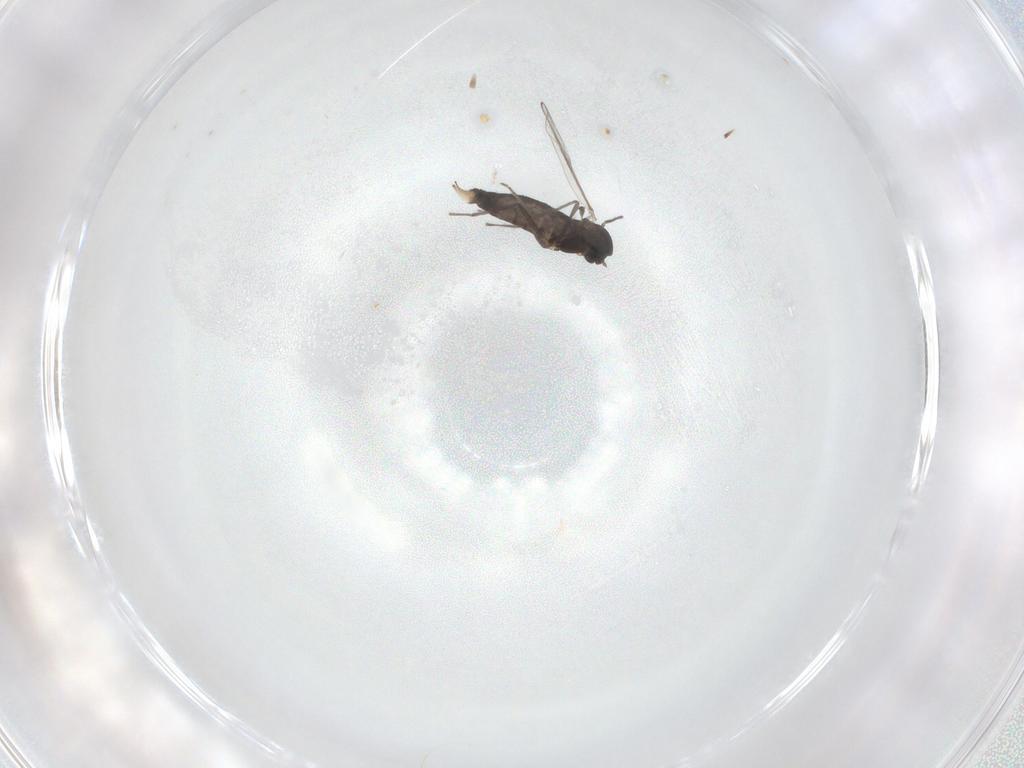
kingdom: Animalia
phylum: Arthropoda
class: Insecta
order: Diptera
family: Chironomidae
